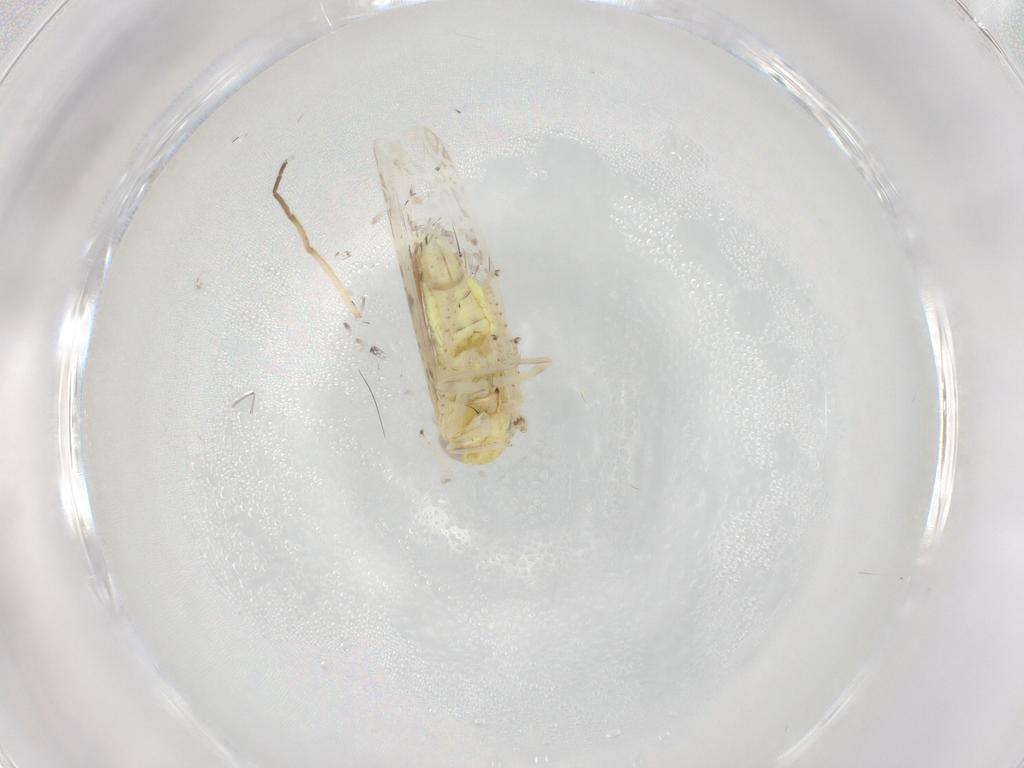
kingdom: Animalia
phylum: Arthropoda
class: Insecta
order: Hemiptera
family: Cicadellidae
